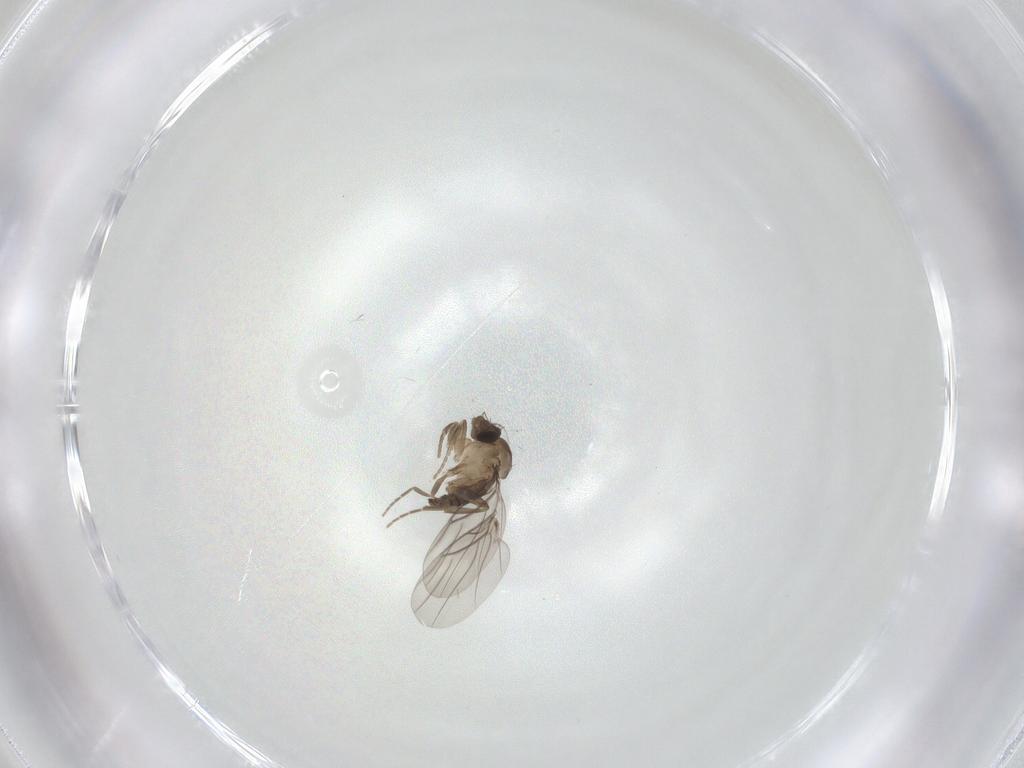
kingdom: Animalia
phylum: Arthropoda
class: Insecta
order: Diptera
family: Phoridae
